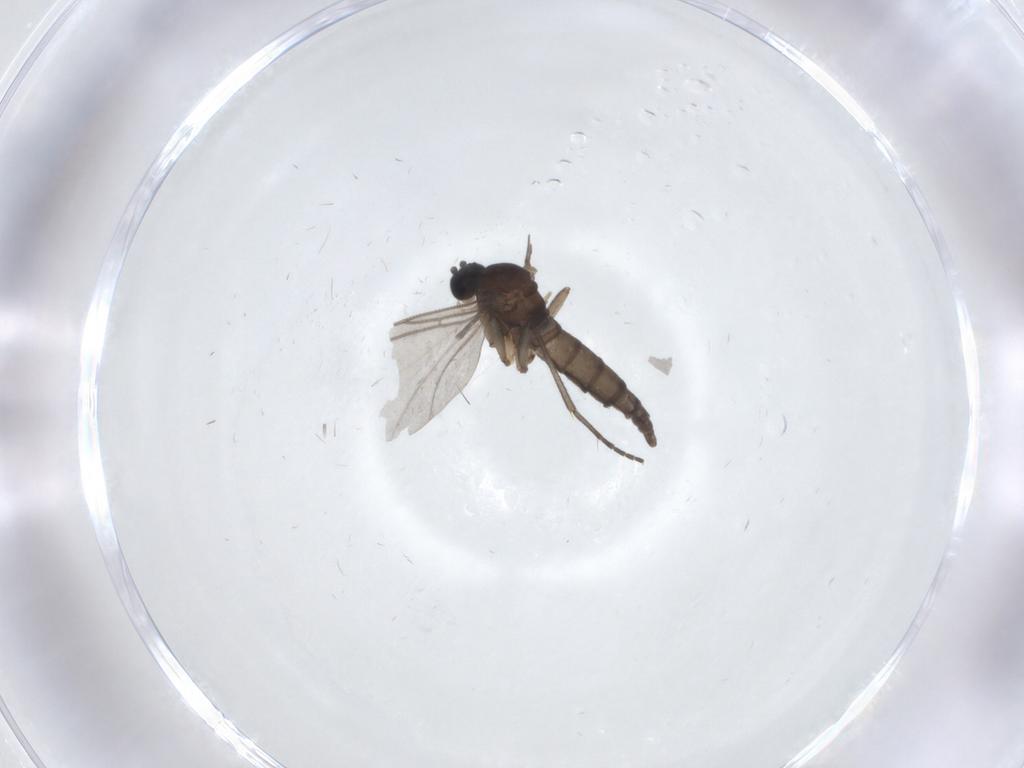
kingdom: Animalia
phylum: Arthropoda
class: Insecta
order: Diptera
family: Sciaridae
